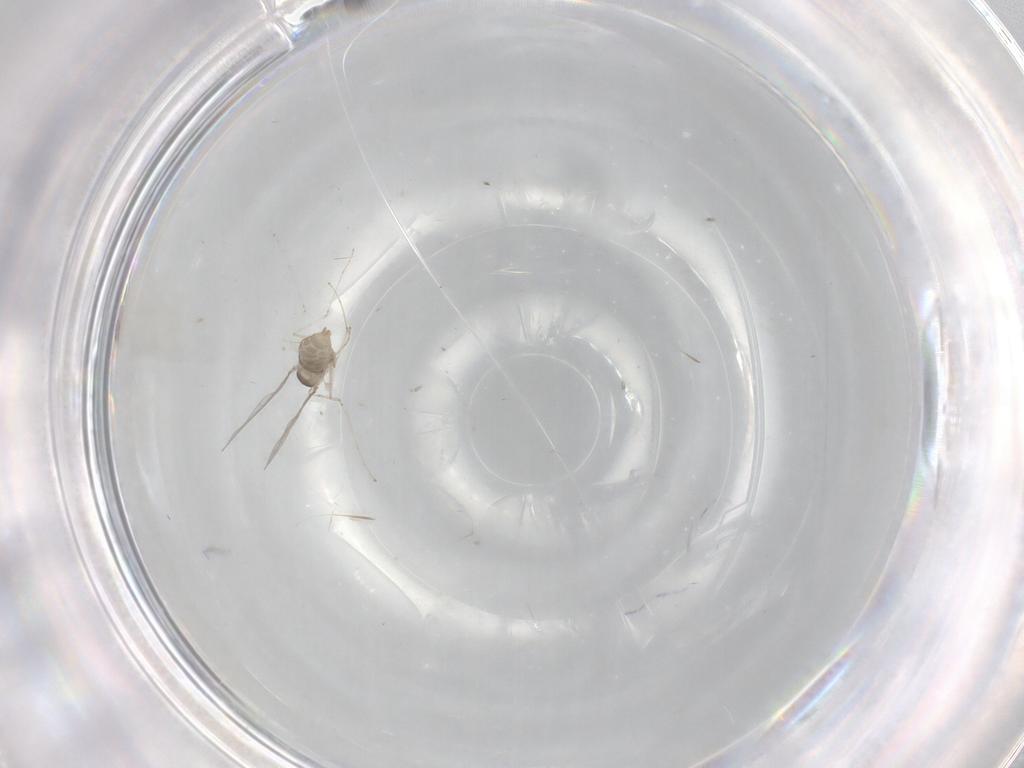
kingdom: Animalia
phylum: Arthropoda
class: Insecta
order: Diptera
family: Cecidomyiidae
